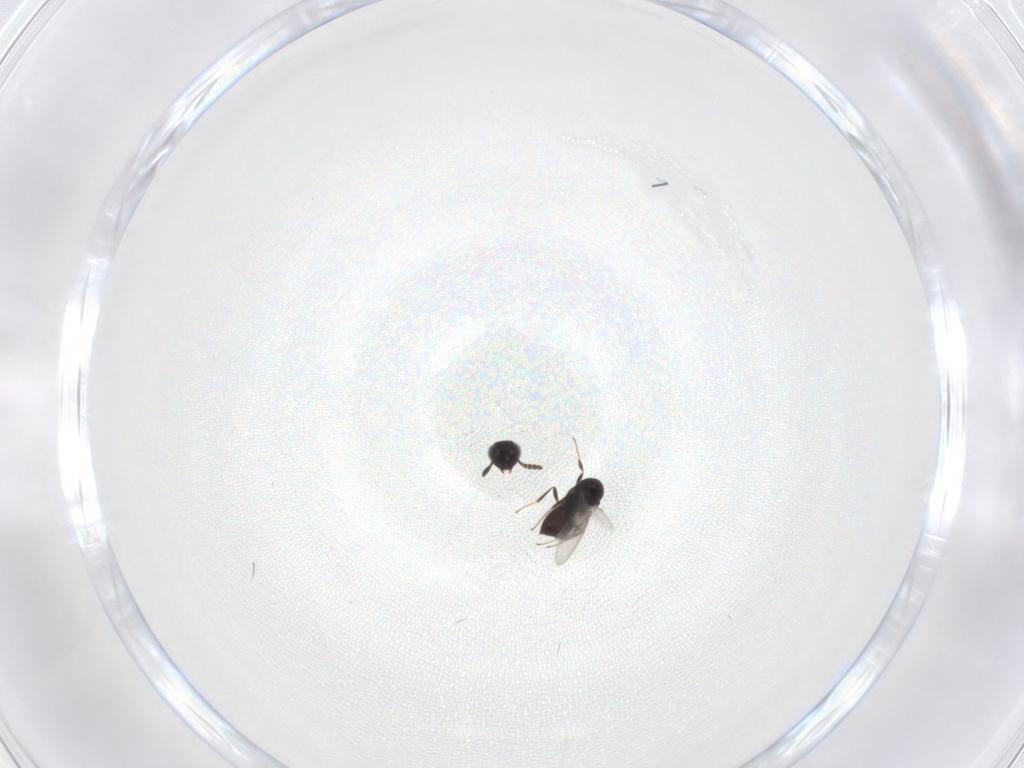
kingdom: Animalia
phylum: Arthropoda
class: Insecta
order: Hymenoptera
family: Scelionidae
